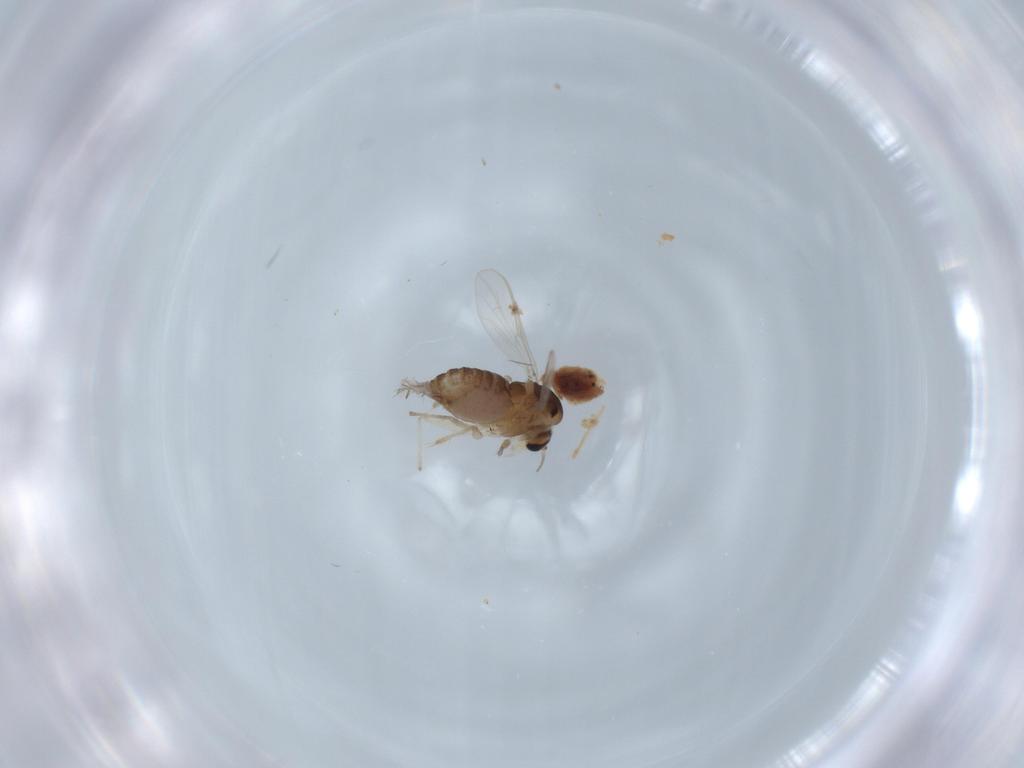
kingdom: Animalia
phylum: Arthropoda
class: Insecta
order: Diptera
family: Chironomidae
